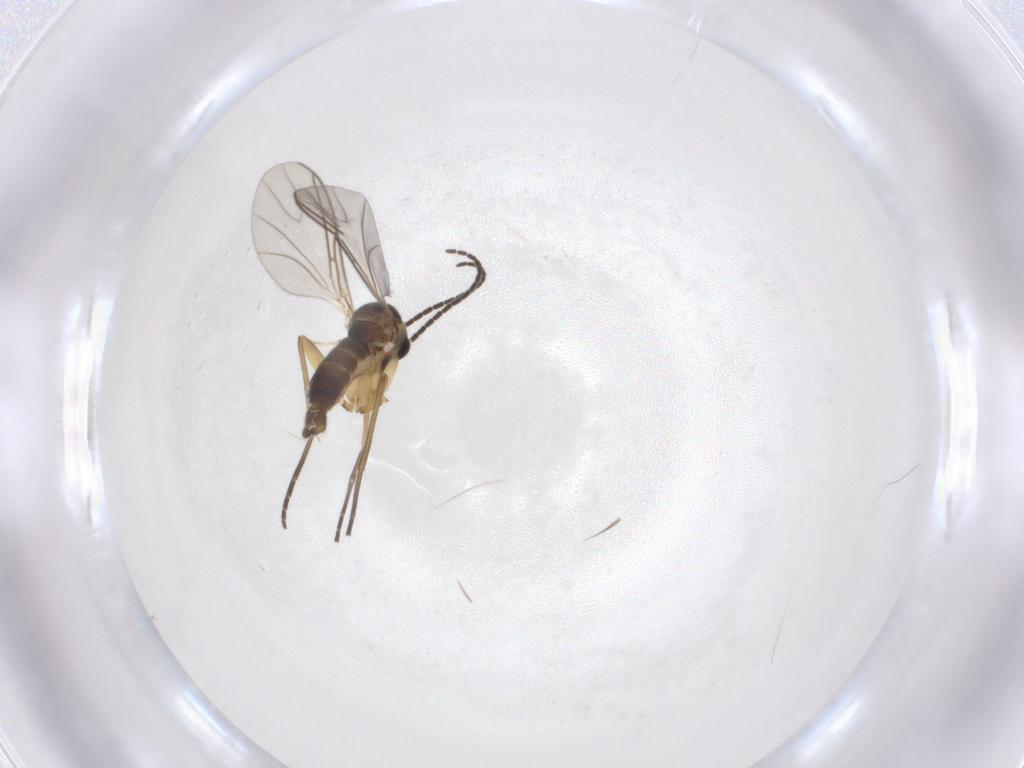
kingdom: Animalia
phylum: Arthropoda
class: Insecta
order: Diptera
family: Sciaridae
